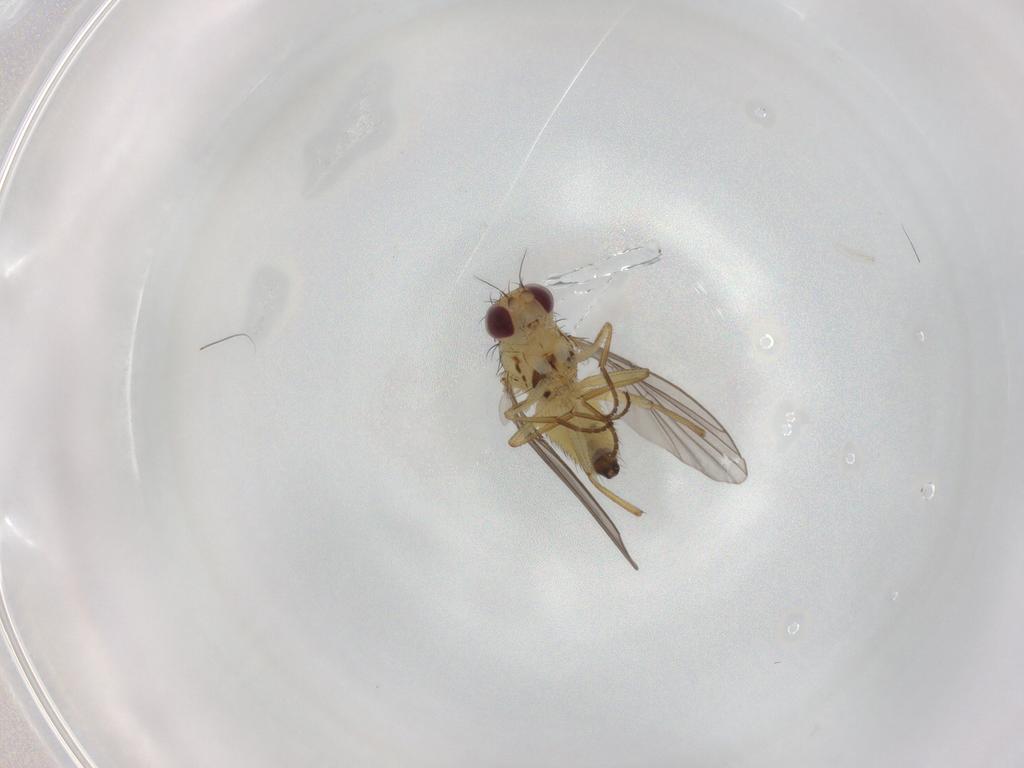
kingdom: Animalia
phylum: Arthropoda
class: Insecta
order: Diptera
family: Agromyzidae
